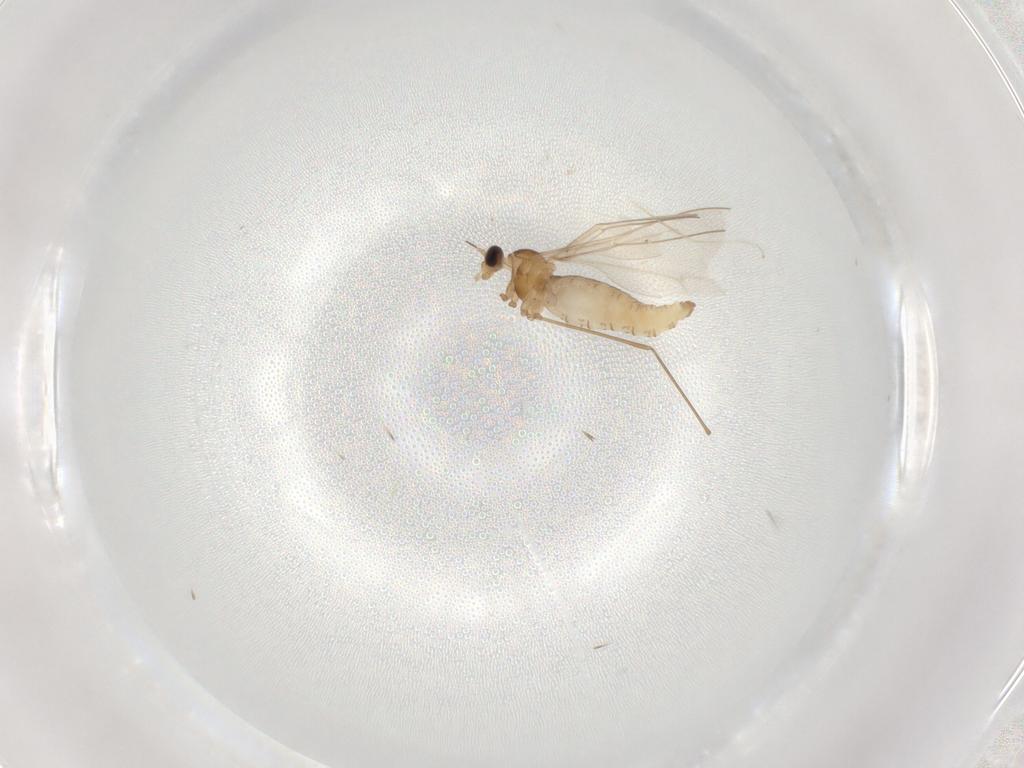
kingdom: Animalia
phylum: Arthropoda
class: Insecta
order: Diptera
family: Cecidomyiidae
